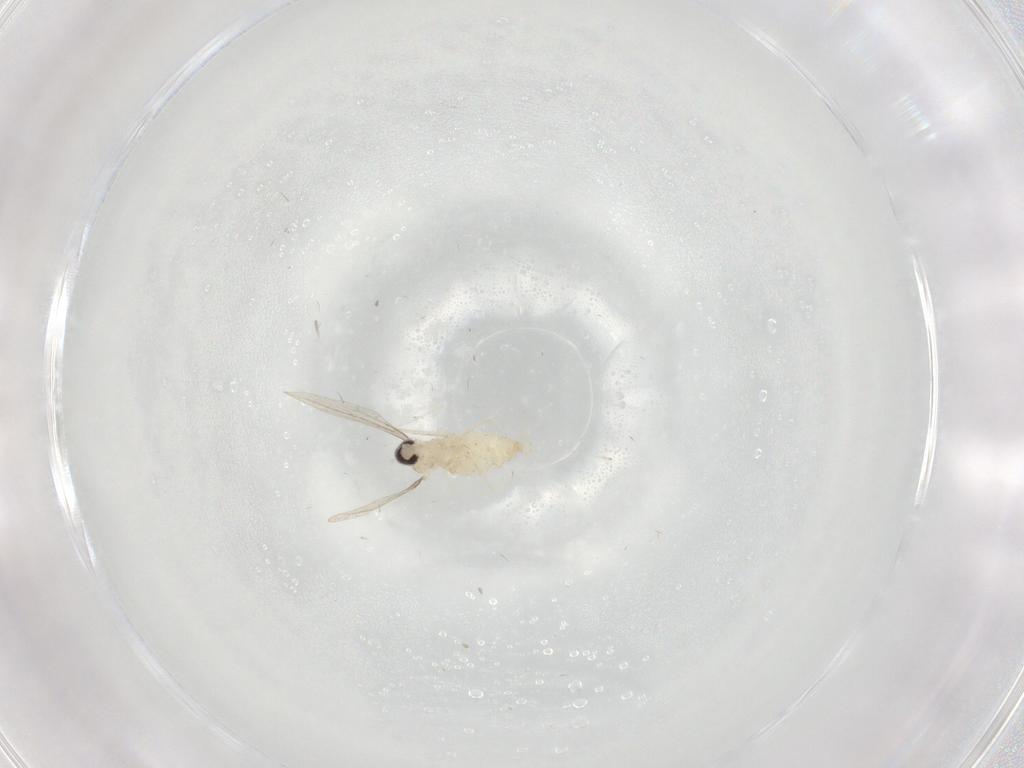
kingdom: Animalia
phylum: Arthropoda
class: Insecta
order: Diptera
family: Cecidomyiidae
